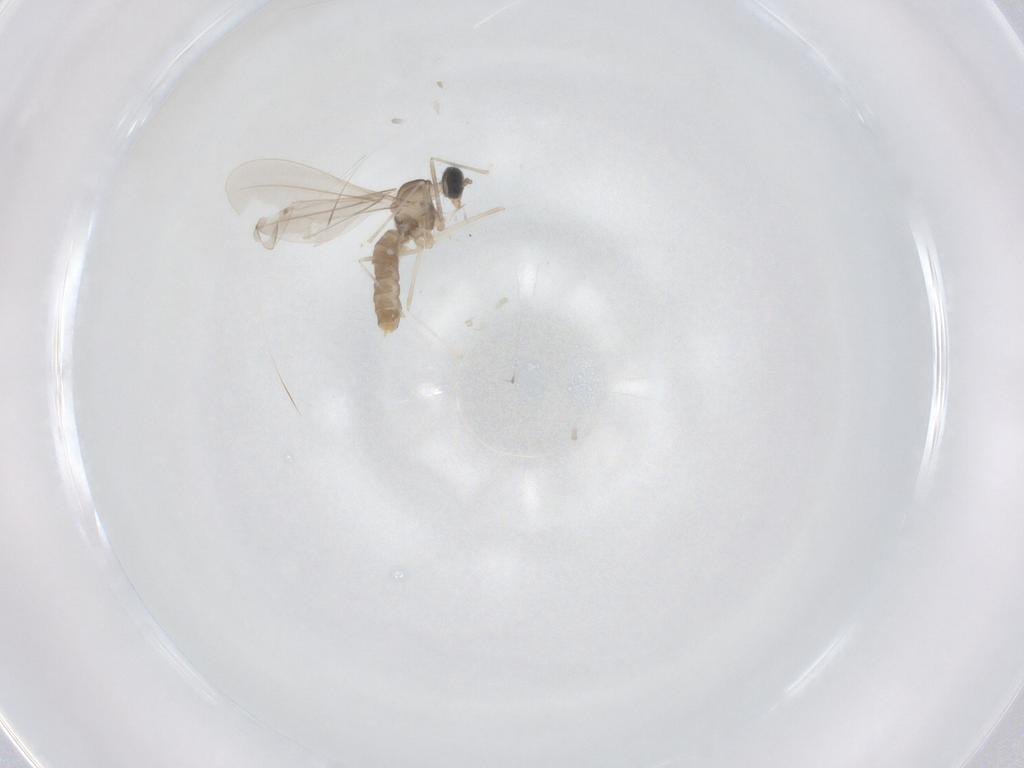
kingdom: Animalia
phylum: Arthropoda
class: Insecta
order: Diptera
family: Cecidomyiidae
